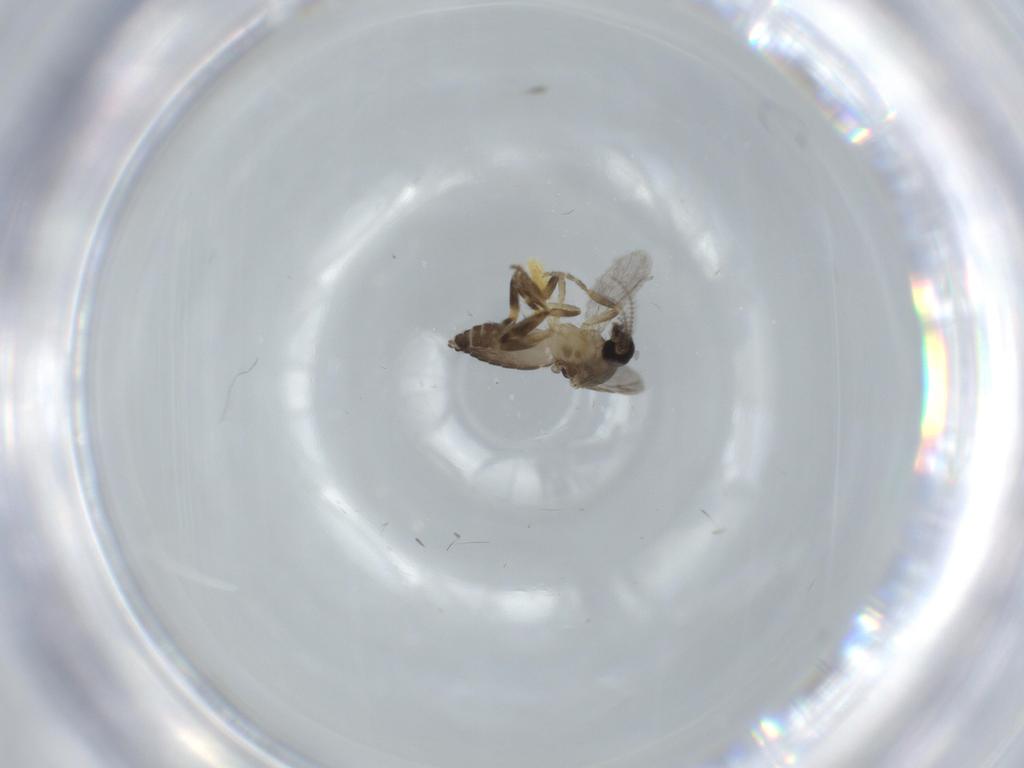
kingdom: Animalia
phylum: Arthropoda
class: Insecta
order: Diptera
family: Ceratopogonidae
